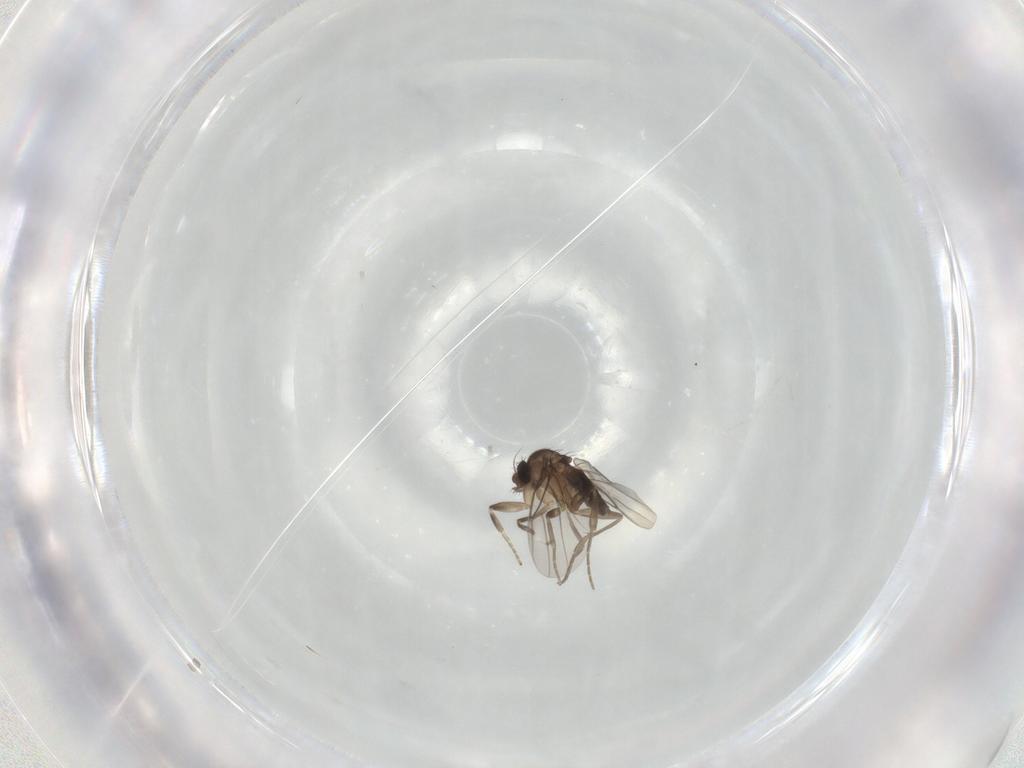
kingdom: Animalia
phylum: Arthropoda
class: Insecta
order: Diptera
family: Phoridae
